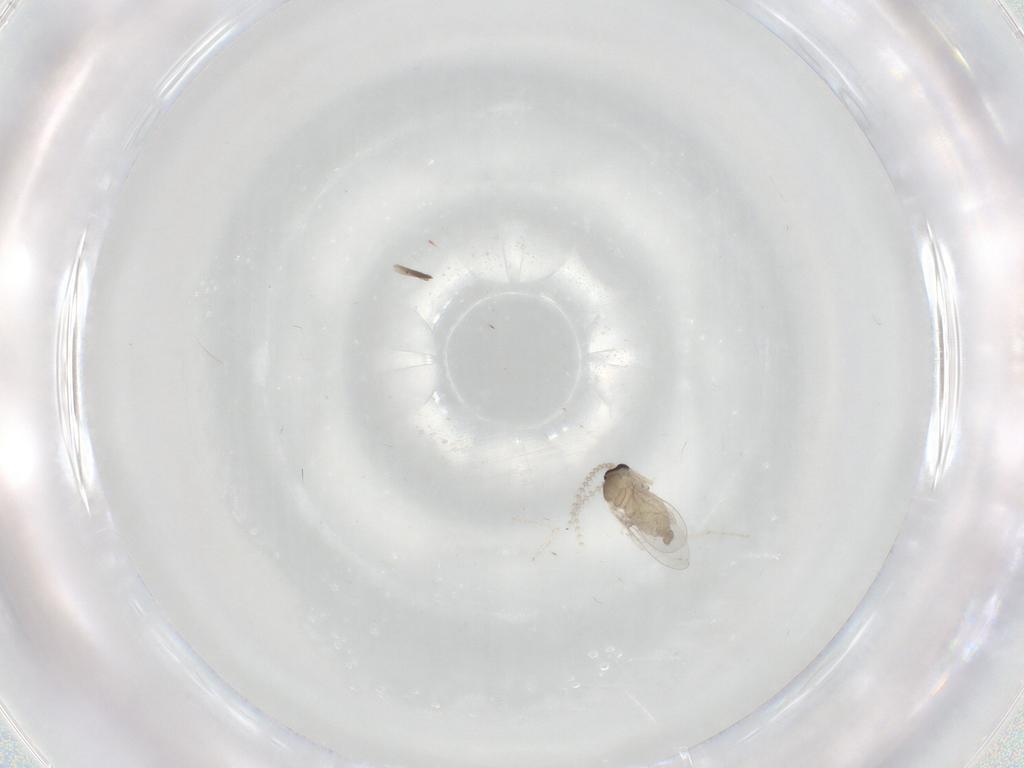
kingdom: Animalia
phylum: Arthropoda
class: Insecta
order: Diptera
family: Cecidomyiidae
